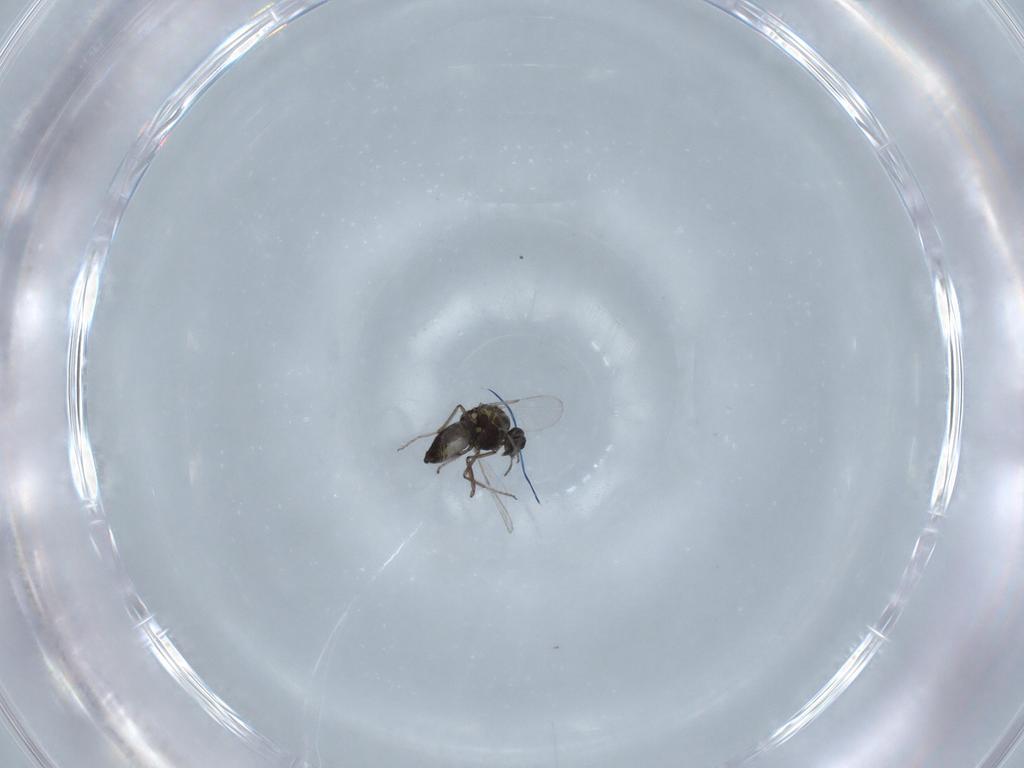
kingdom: Animalia
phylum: Arthropoda
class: Insecta
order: Diptera
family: Ceratopogonidae
